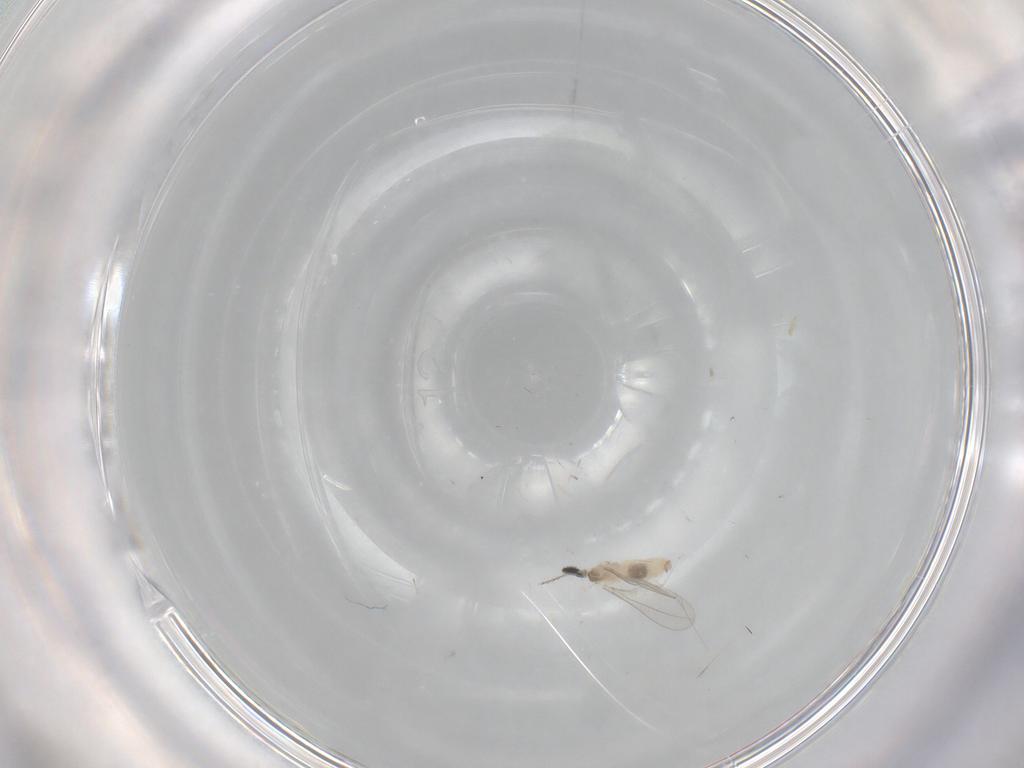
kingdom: Animalia
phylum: Arthropoda
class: Insecta
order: Diptera
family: Cecidomyiidae
